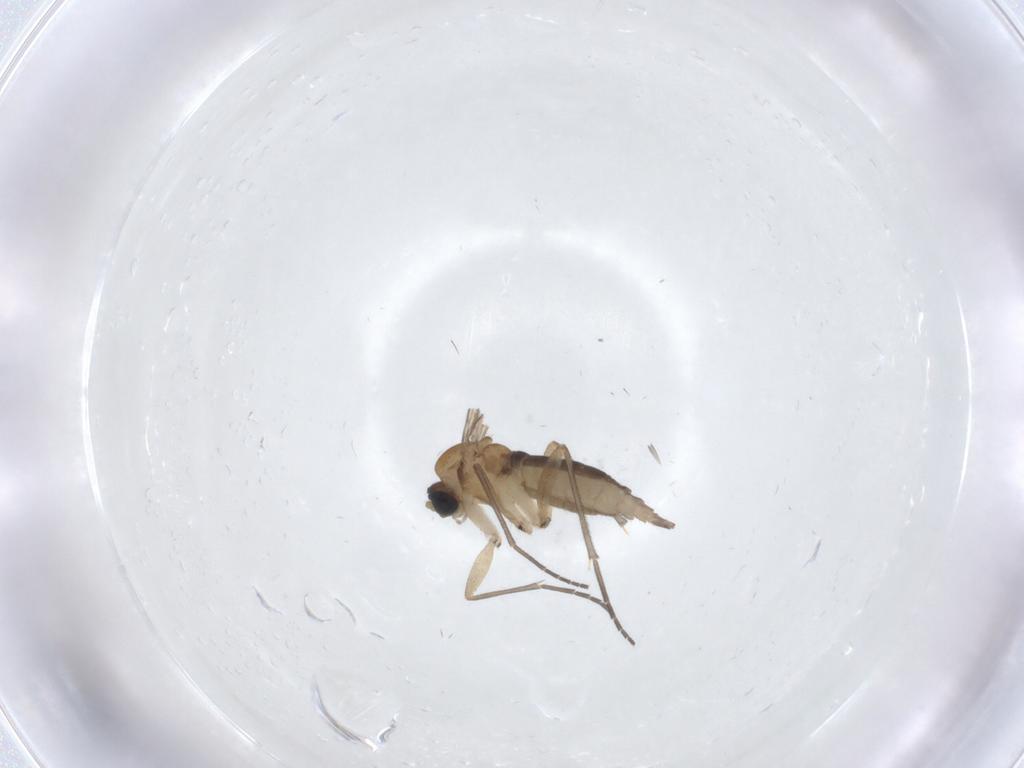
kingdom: Animalia
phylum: Arthropoda
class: Insecta
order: Diptera
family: Sciaridae
